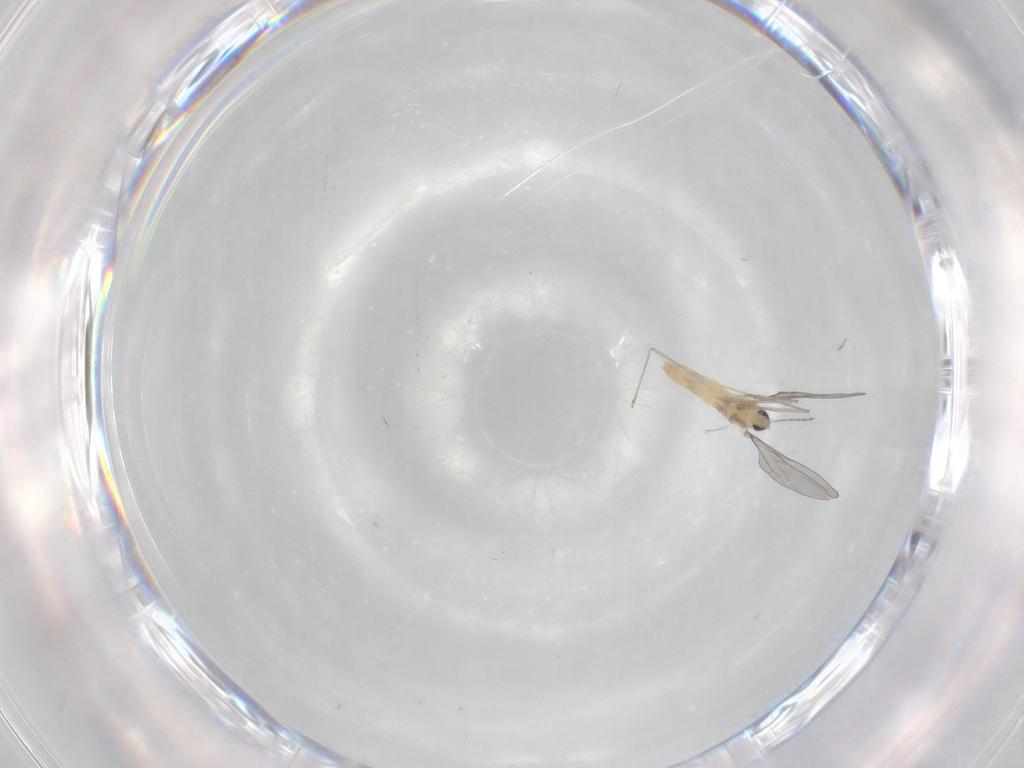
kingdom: Animalia
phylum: Arthropoda
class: Insecta
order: Diptera
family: Cecidomyiidae
